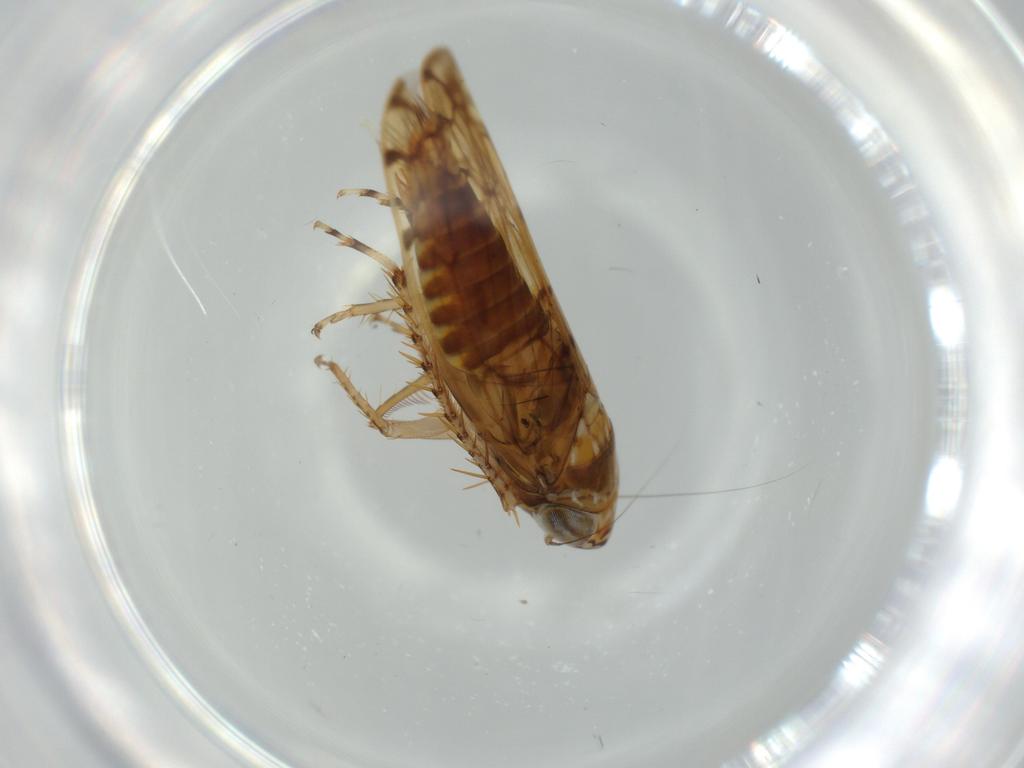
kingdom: Animalia
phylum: Arthropoda
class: Insecta
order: Hemiptera
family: Cicadellidae
